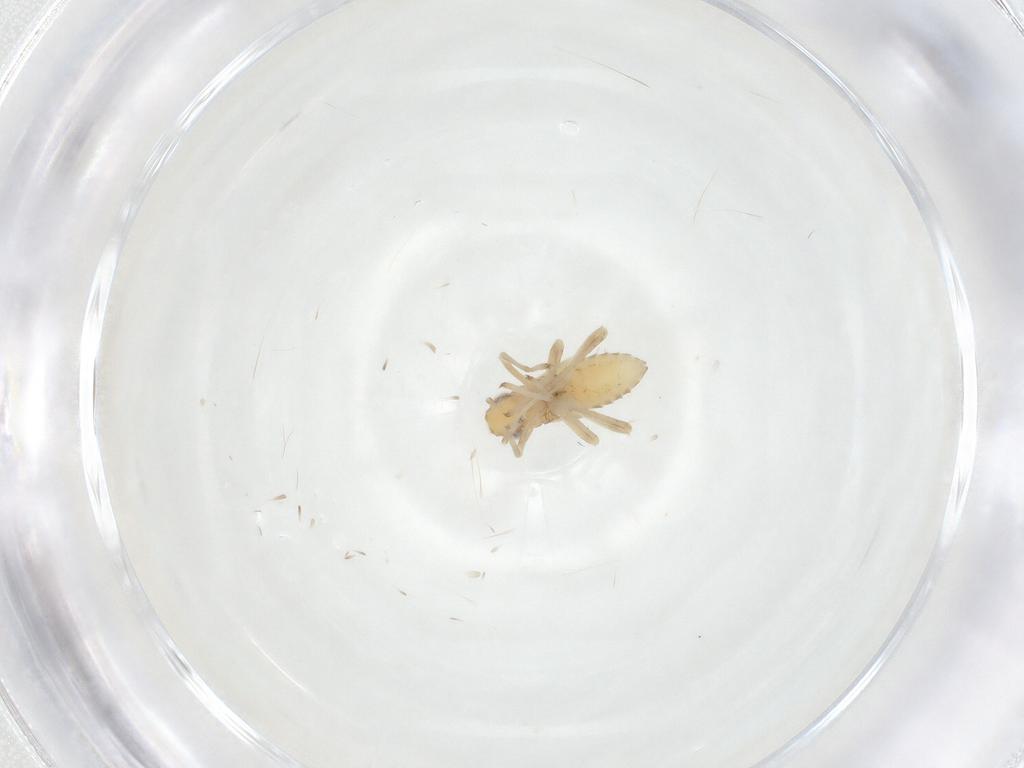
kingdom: Animalia
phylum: Arthropoda
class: Insecta
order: Hemiptera
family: Cicadellidae
